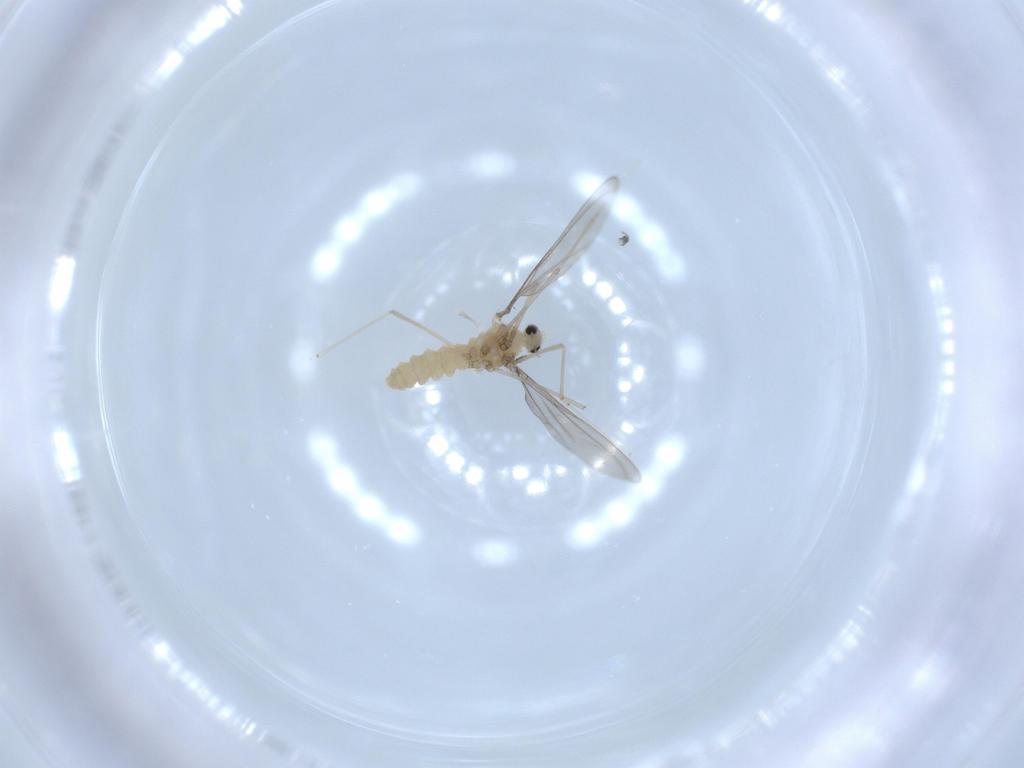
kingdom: Animalia
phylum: Arthropoda
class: Insecta
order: Diptera
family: Cecidomyiidae
